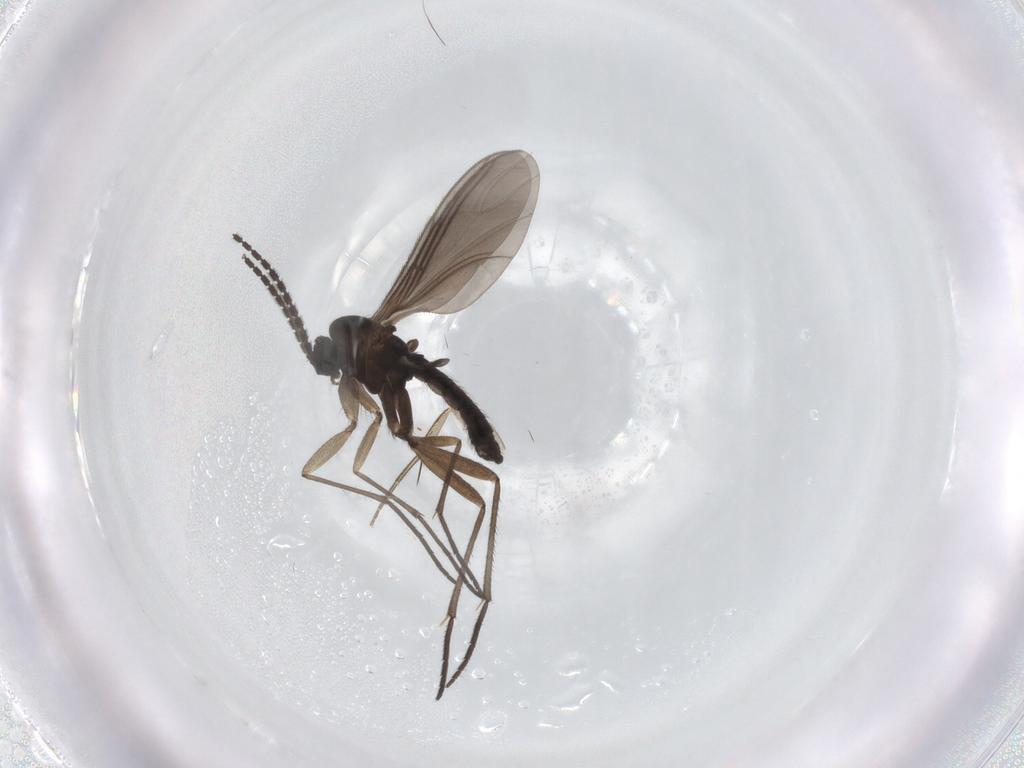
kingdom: Animalia
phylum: Arthropoda
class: Insecta
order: Diptera
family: Sciaridae
